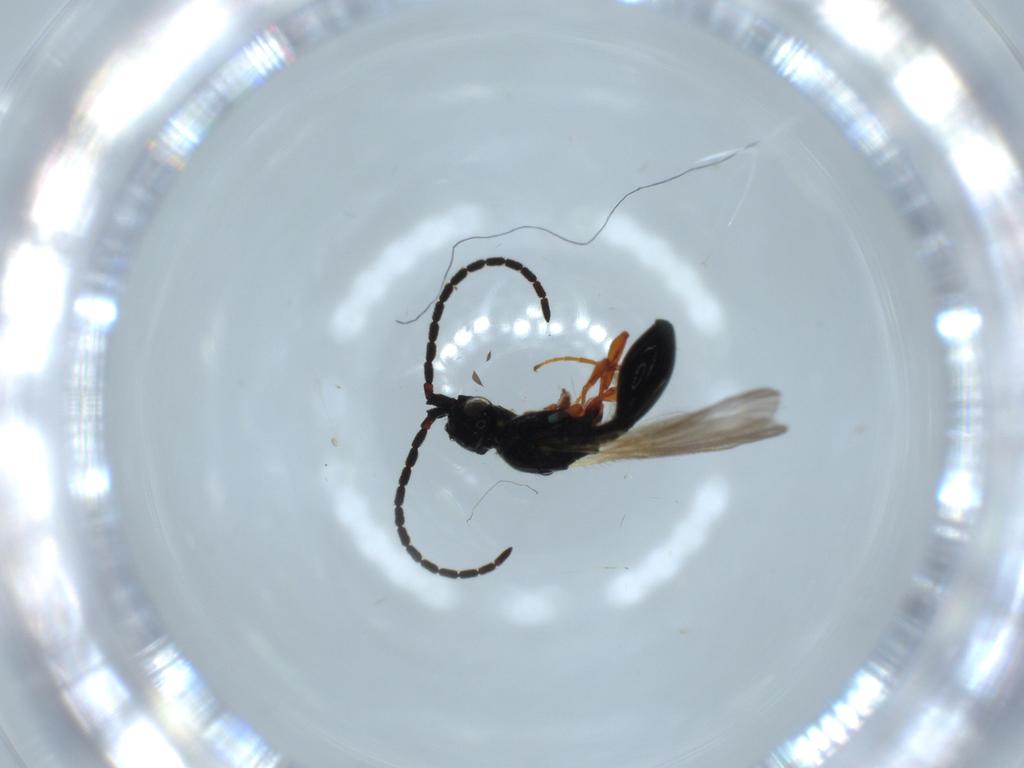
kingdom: Animalia
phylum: Arthropoda
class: Insecta
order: Hymenoptera
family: Diapriidae
